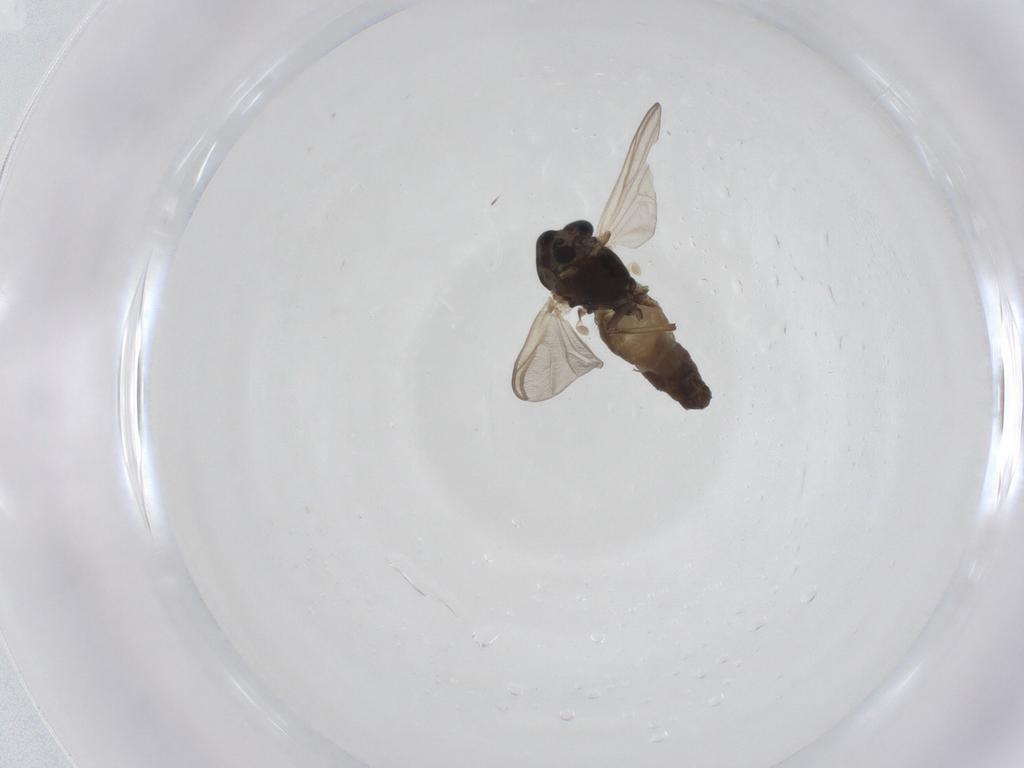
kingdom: Animalia
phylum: Arthropoda
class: Insecta
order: Diptera
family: Chironomidae
